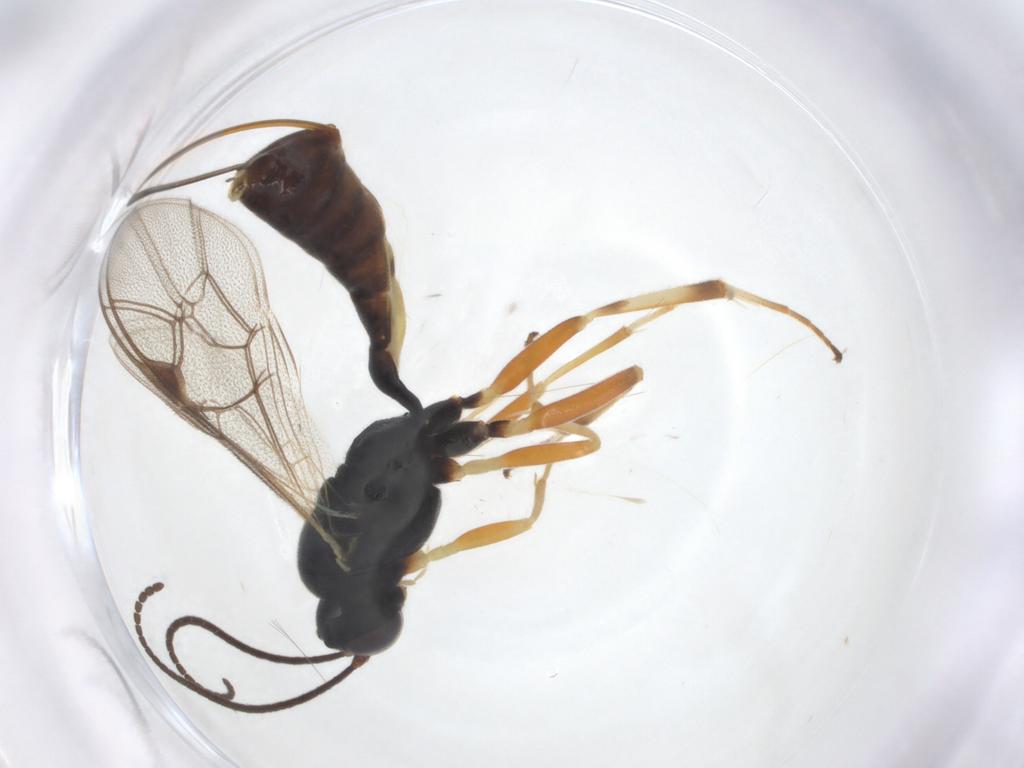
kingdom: Animalia
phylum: Arthropoda
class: Insecta
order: Hymenoptera
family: Ichneumonidae
